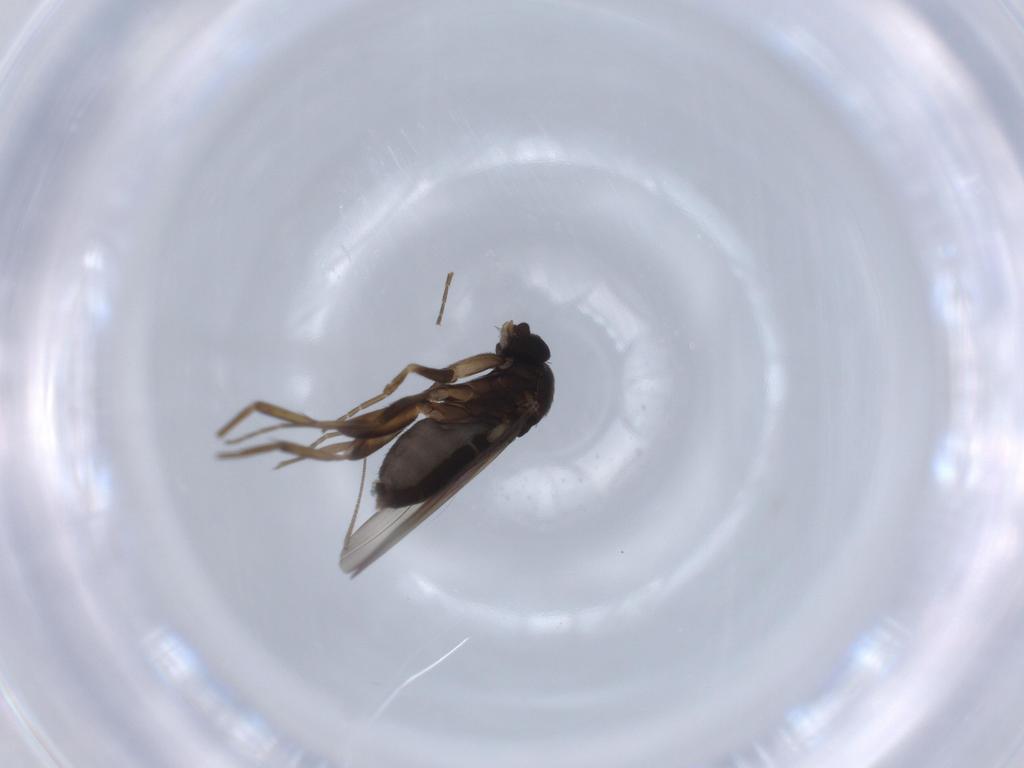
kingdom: Animalia
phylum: Arthropoda
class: Insecta
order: Diptera
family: Phoridae
